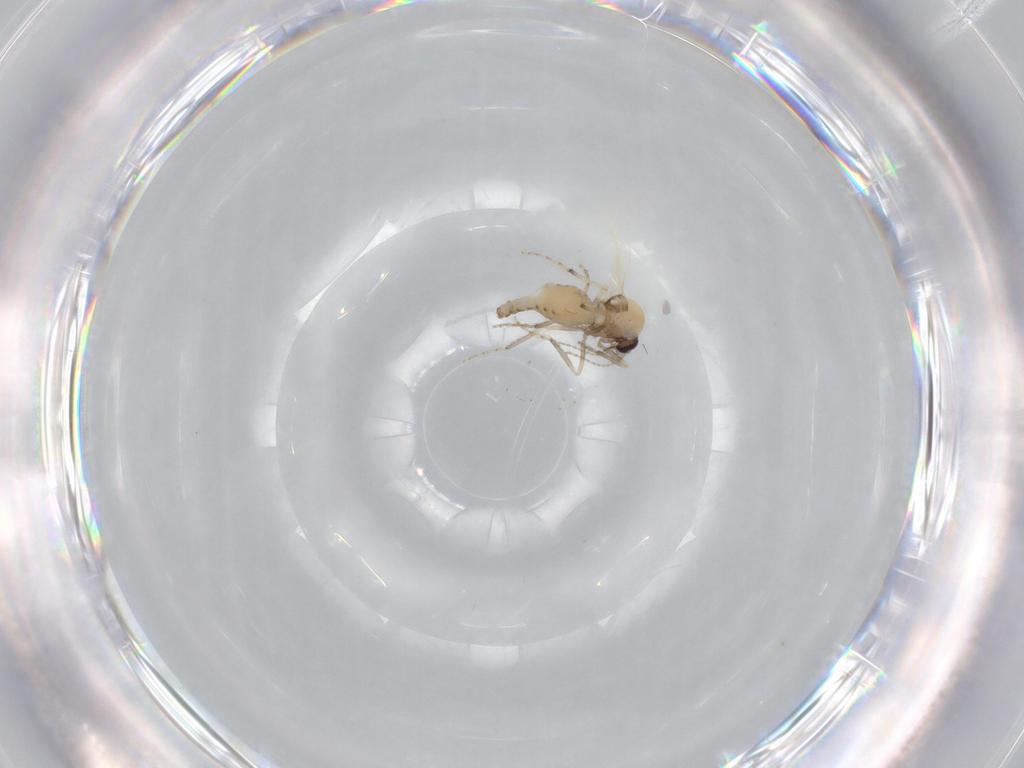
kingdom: Animalia
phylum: Arthropoda
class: Insecta
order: Diptera
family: Ceratopogonidae
